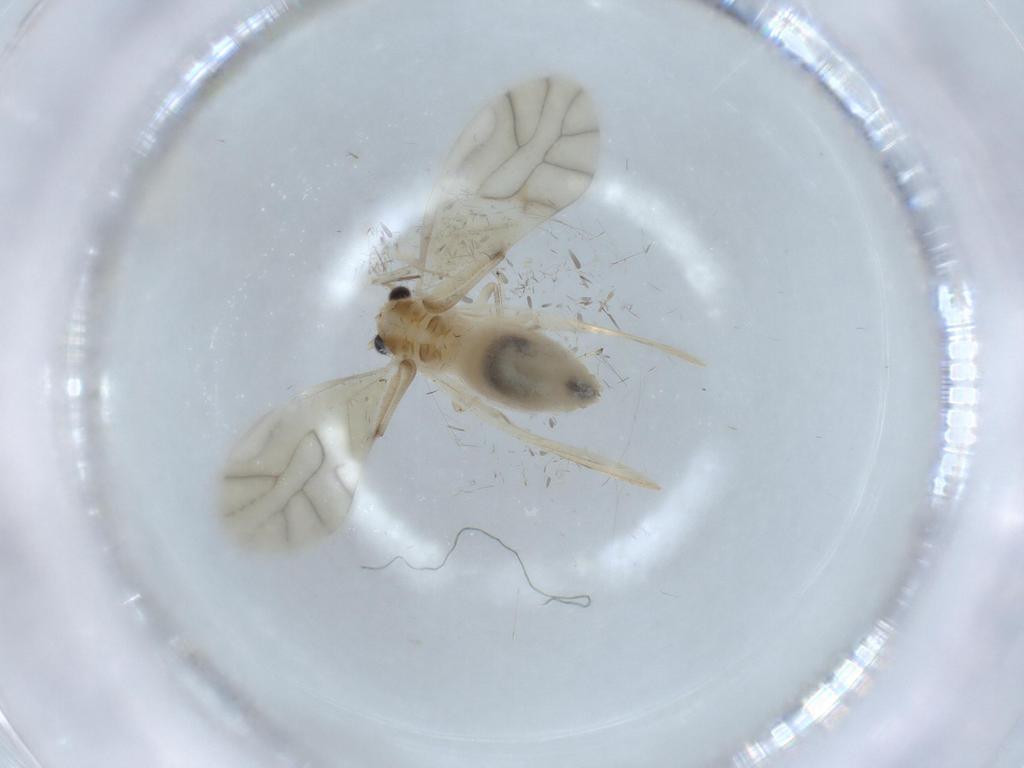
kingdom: Animalia
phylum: Arthropoda
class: Insecta
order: Psocodea
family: Caeciliusidae
